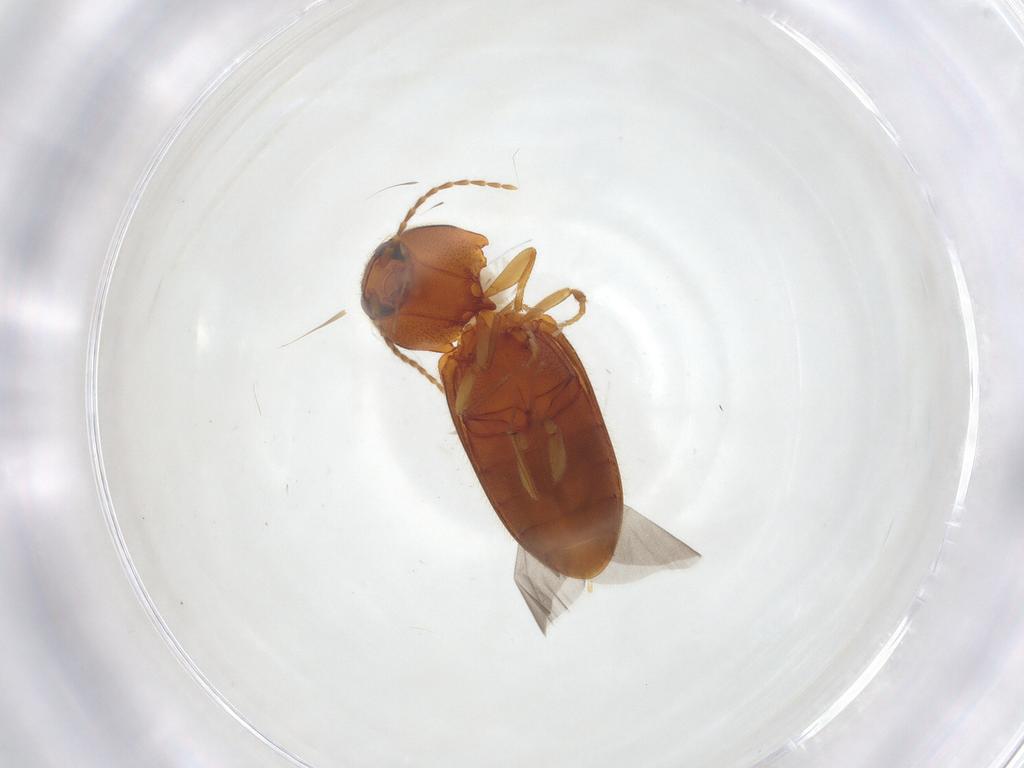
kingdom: Animalia
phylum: Arthropoda
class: Insecta
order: Coleoptera
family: Elateridae
